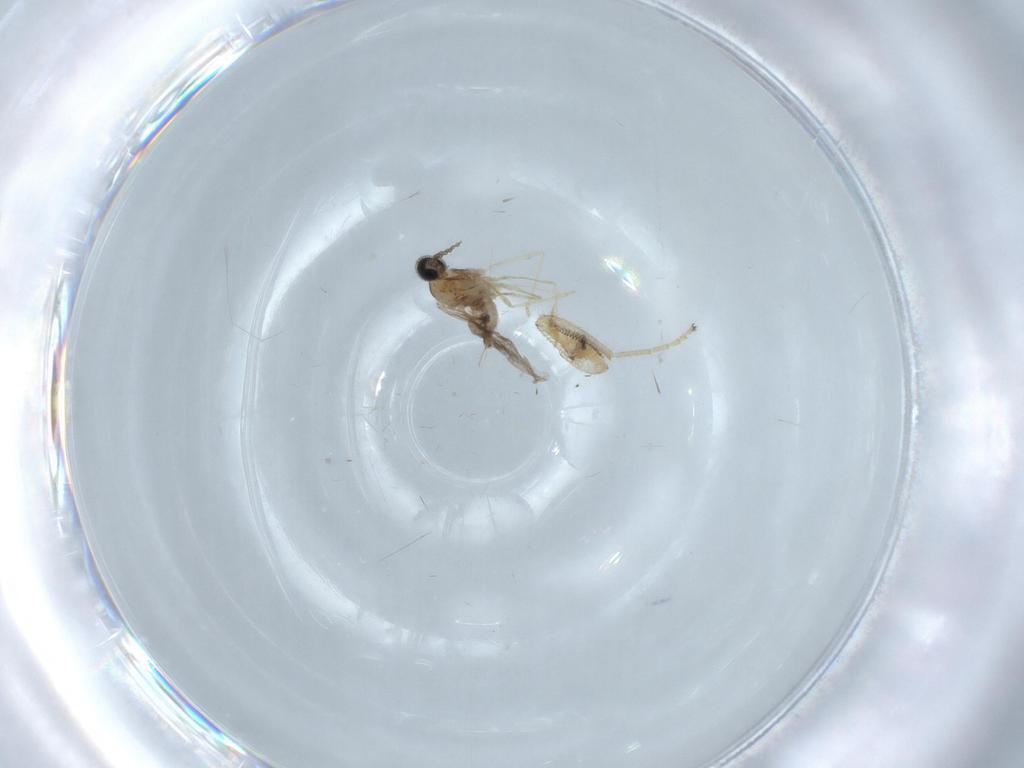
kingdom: Animalia
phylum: Arthropoda
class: Insecta
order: Diptera
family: Cecidomyiidae
